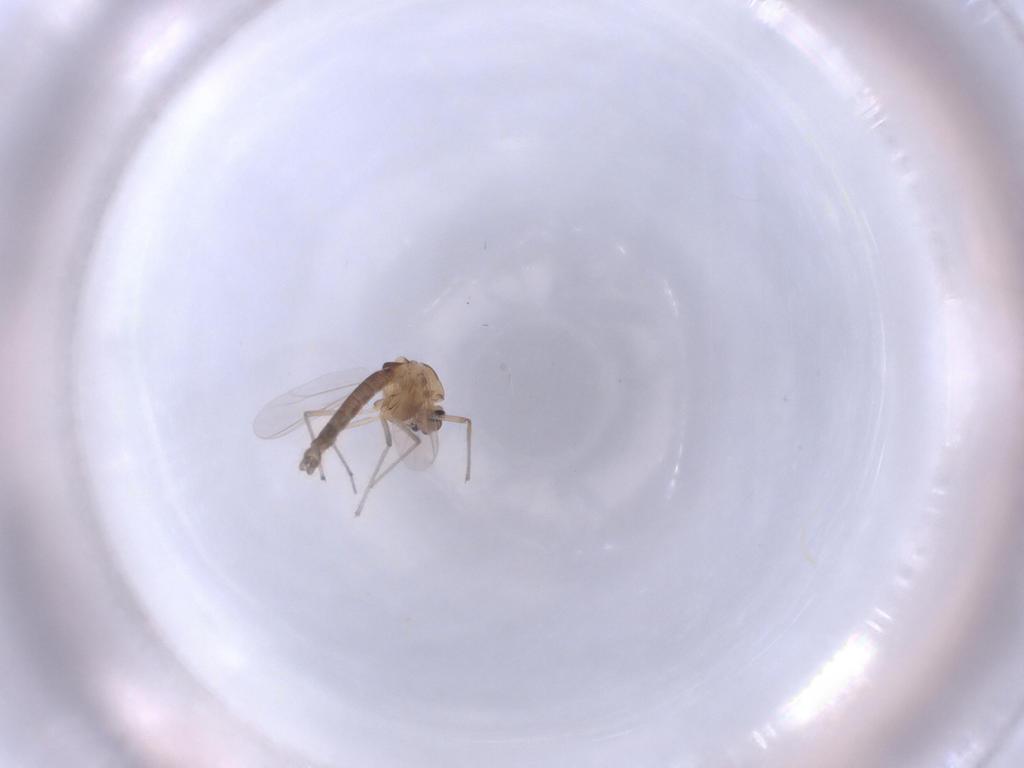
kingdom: Animalia
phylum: Arthropoda
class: Insecta
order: Diptera
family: Chironomidae
